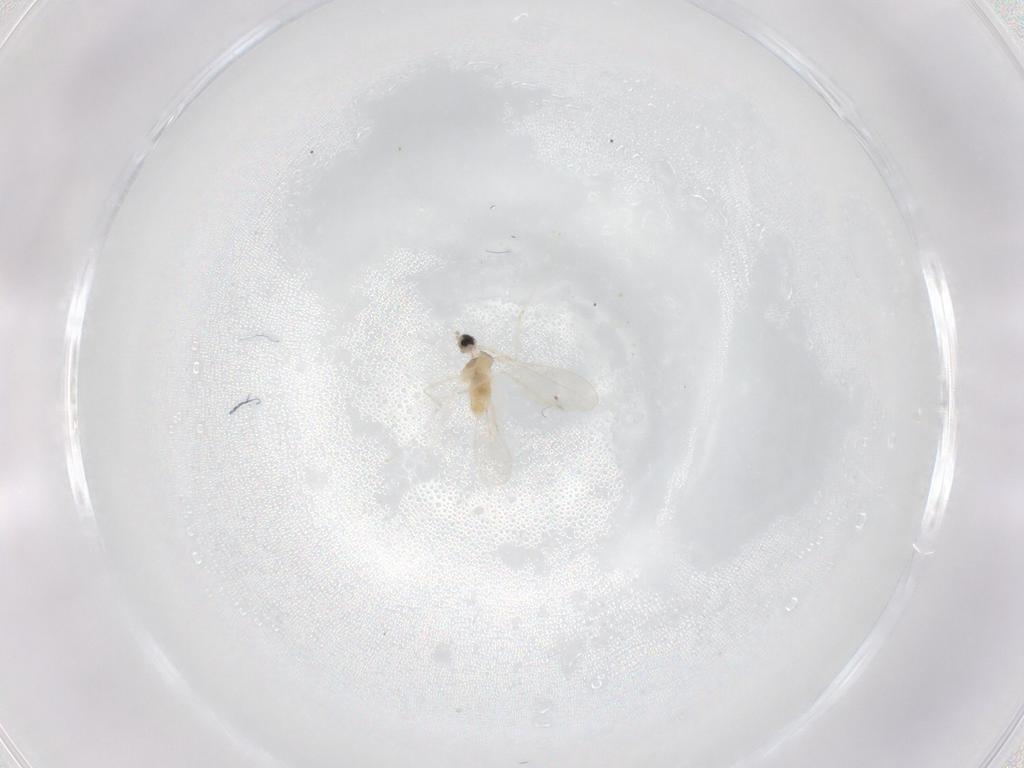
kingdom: Animalia
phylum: Arthropoda
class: Insecta
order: Diptera
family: Cecidomyiidae
